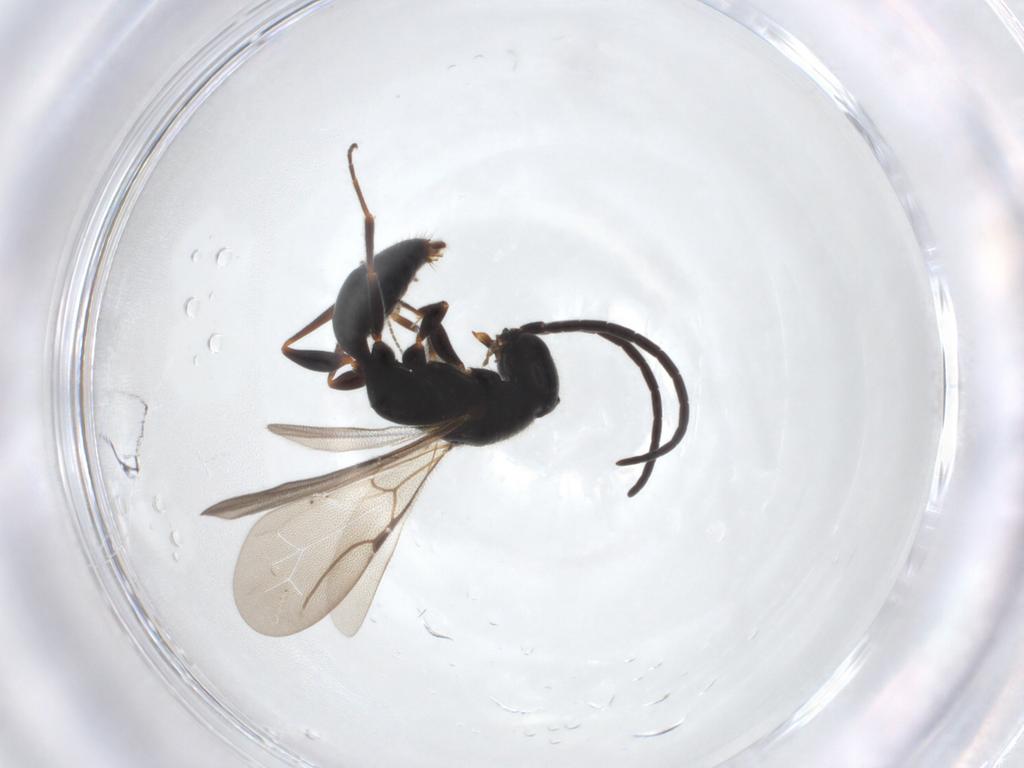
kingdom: Animalia
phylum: Arthropoda
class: Insecta
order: Hymenoptera
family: Bethylidae
